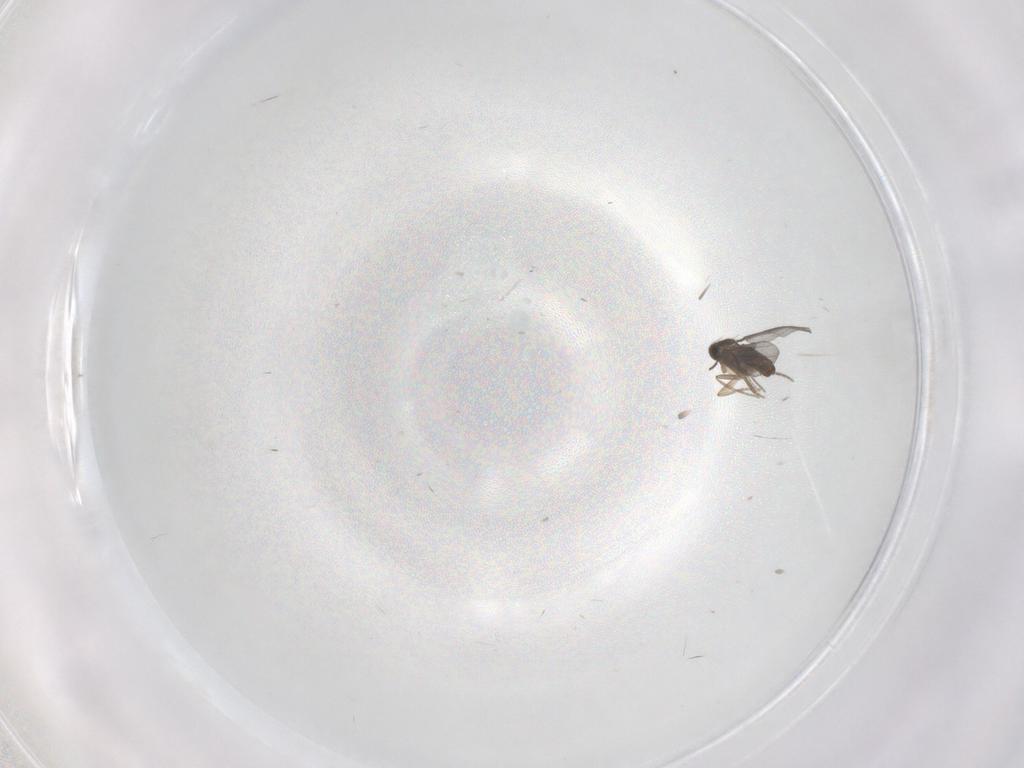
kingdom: Animalia
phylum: Arthropoda
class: Insecta
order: Diptera
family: Phoridae
